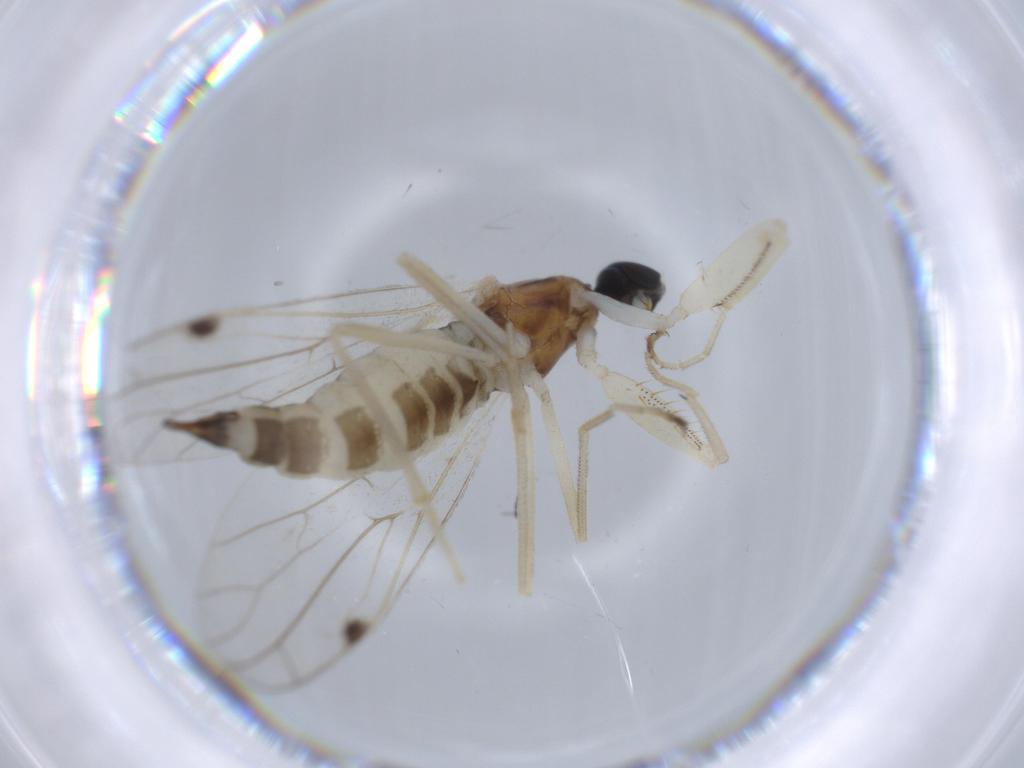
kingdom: Animalia
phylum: Arthropoda
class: Insecta
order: Diptera
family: Empididae
